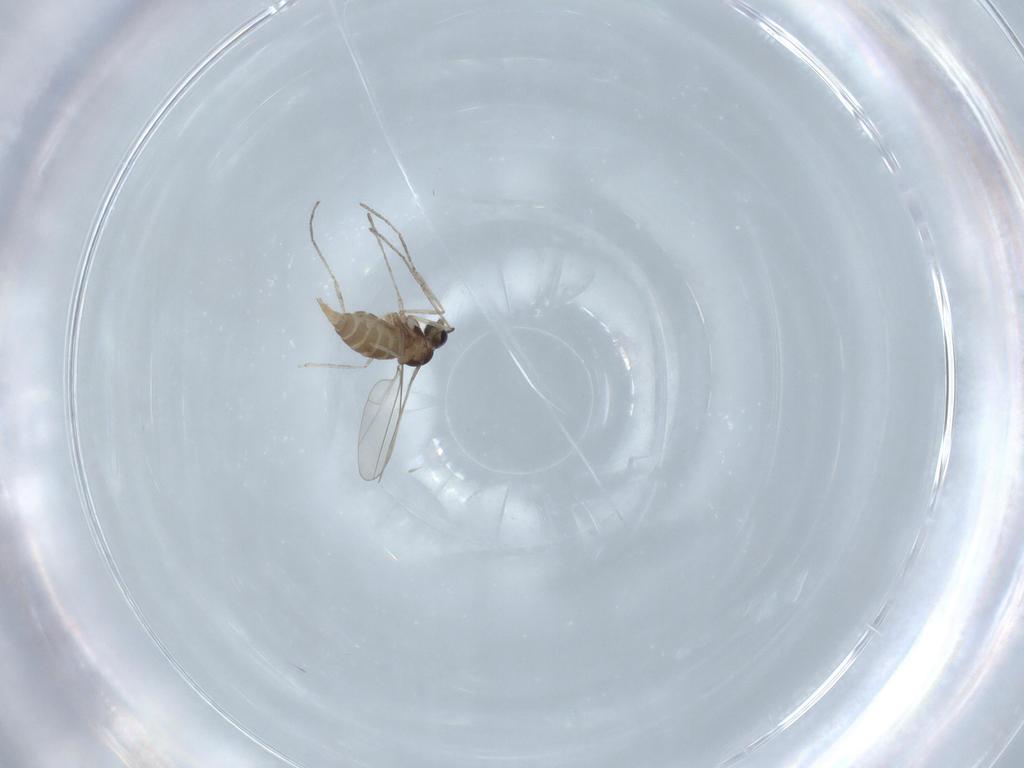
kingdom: Animalia
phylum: Arthropoda
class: Insecta
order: Diptera
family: Cecidomyiidae
